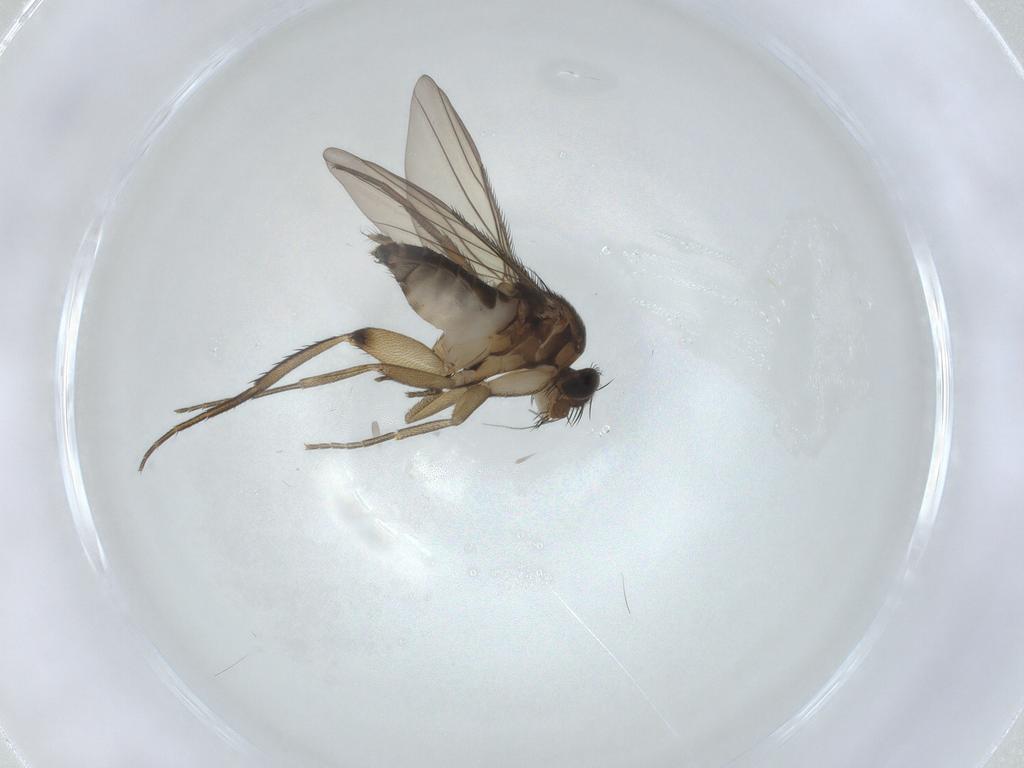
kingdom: Animalia
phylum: Arthropoda
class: Insecta
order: Diptera
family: Phoridae
